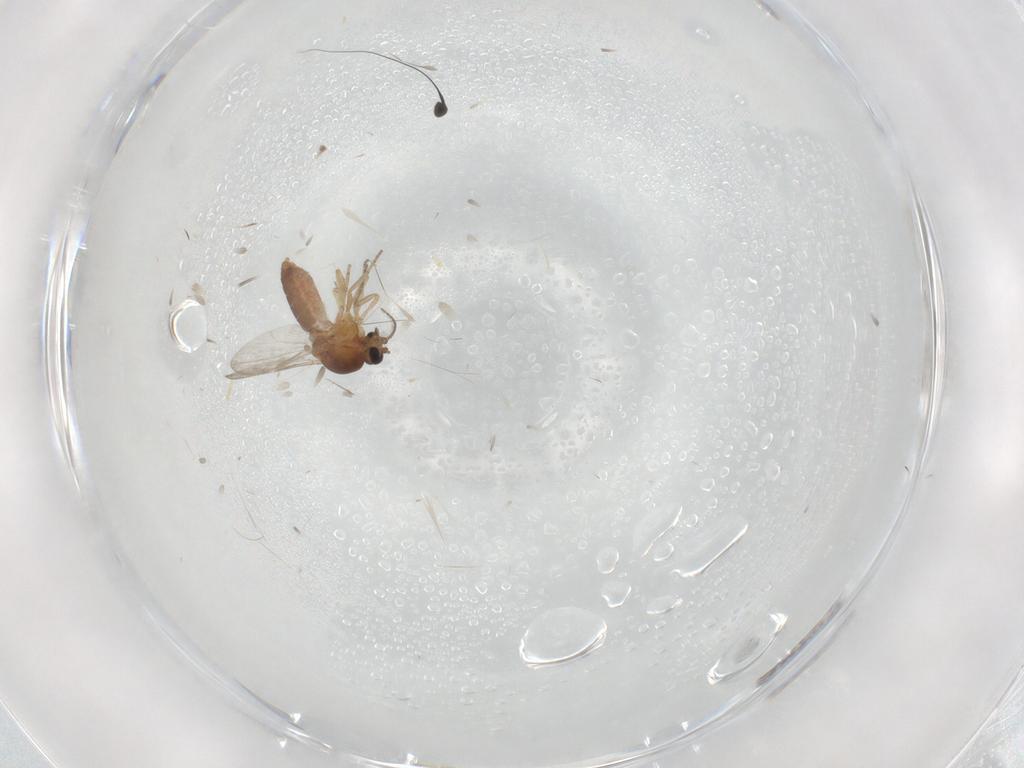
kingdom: Animalia
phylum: Arthropoda
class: Insecta
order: Diptera
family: Ceratopogonidae
